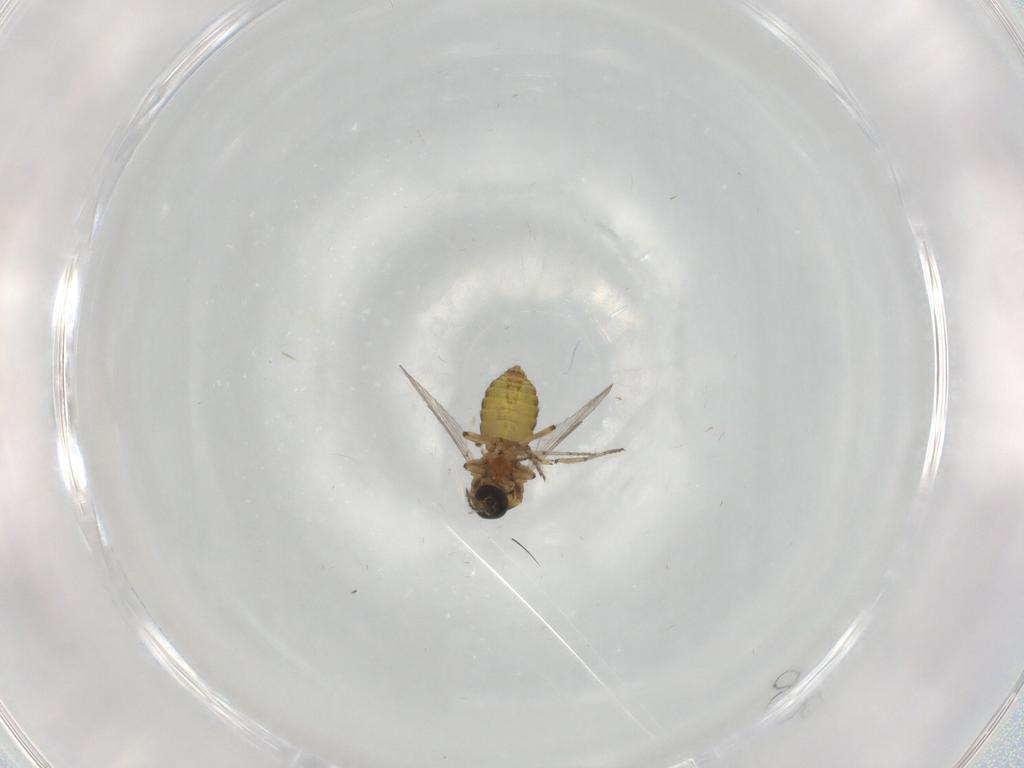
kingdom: Animalia
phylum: Arthropoda
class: Insecta
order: Diptera
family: Ceratopogonidae
